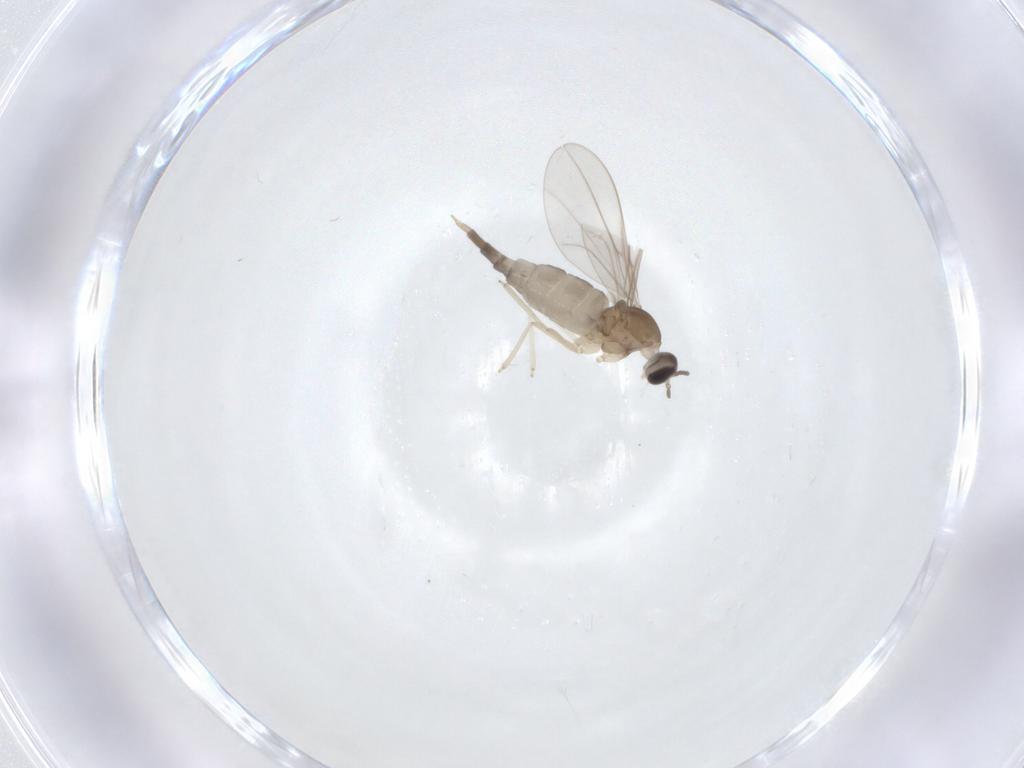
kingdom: Animalia
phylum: Arthropoda
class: Insecta
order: Diptera
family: Cecidomyiidae
